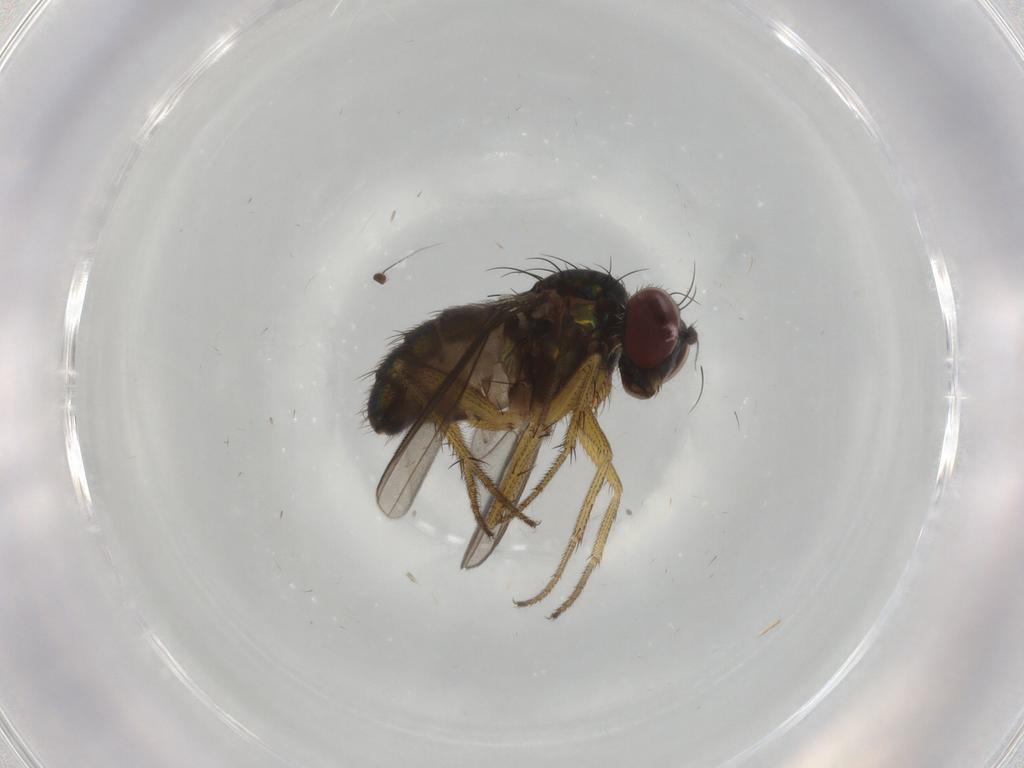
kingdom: Animalia
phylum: Arthropoda
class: Insecta
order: Diptera
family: Dolichopodidae
